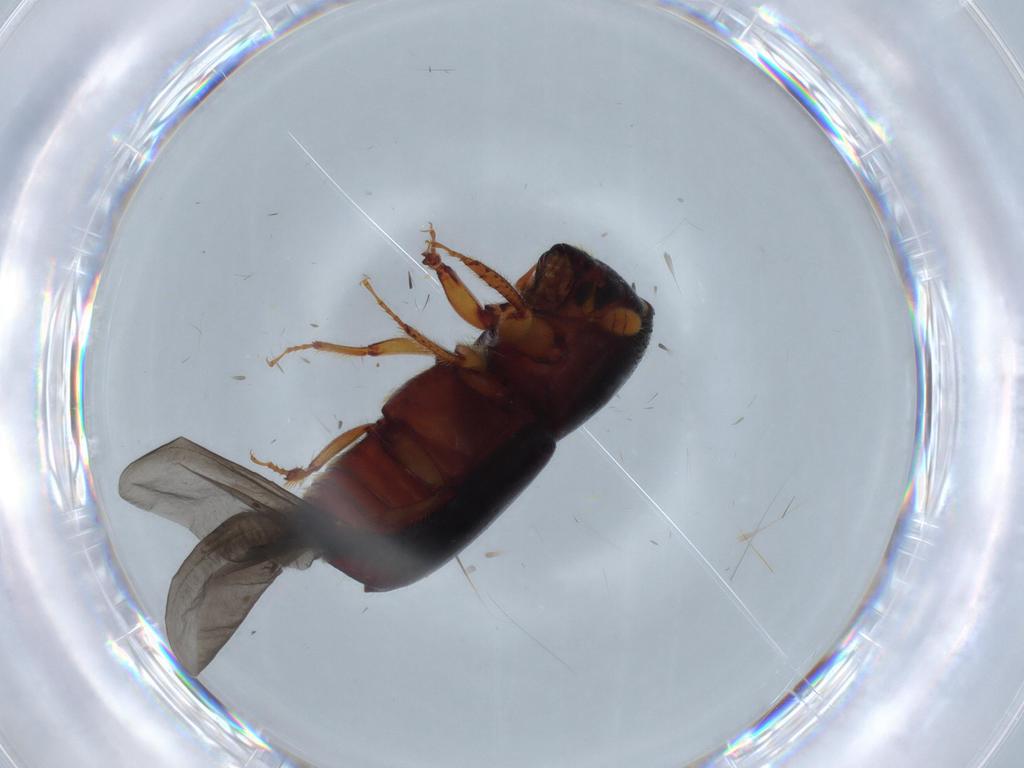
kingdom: Animalia
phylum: Arthropoda
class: Insecta
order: Coleoptera
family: Curculionidae
